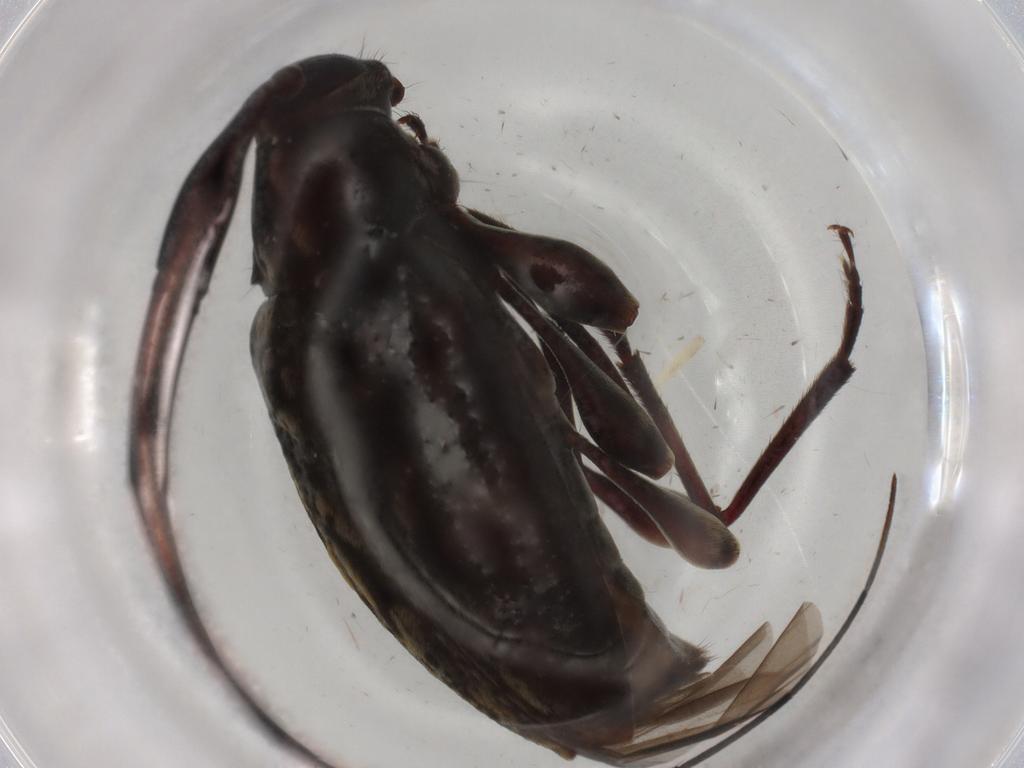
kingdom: Animalia
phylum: Arthropoda
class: Insecta
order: Coleoptera
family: Cerambycidae
